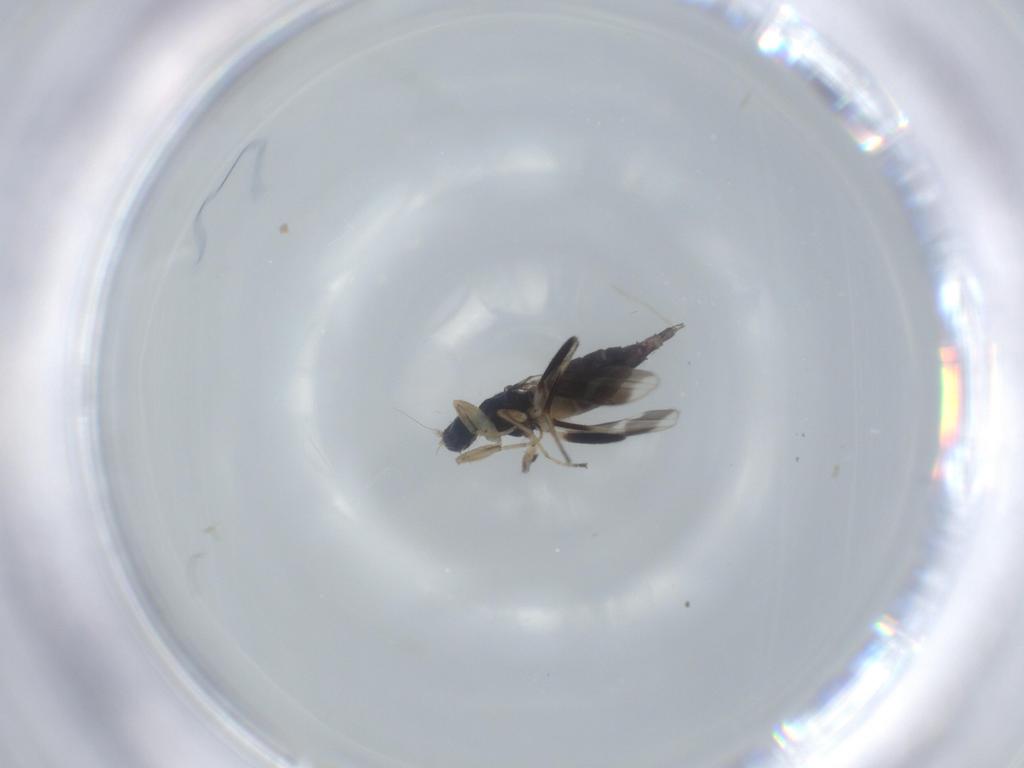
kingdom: Animalia
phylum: Arthropoda
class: Insecta
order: Diptera
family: Hybotidae
